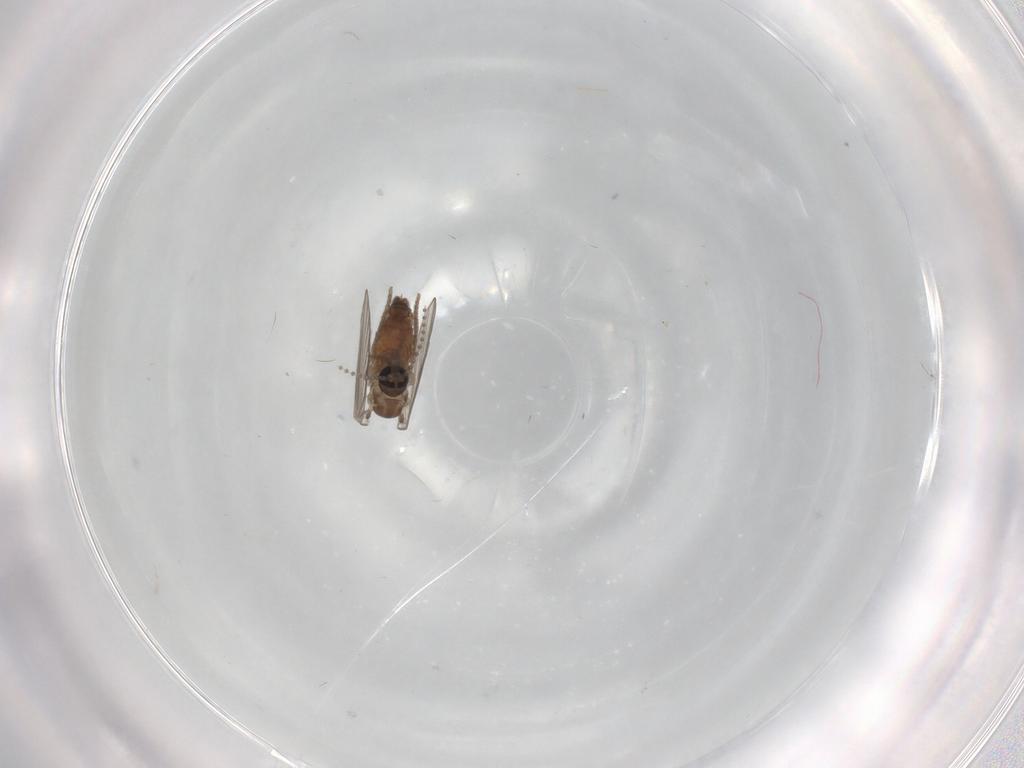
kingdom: Animalia
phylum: Arthropoda
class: Insecta
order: Diptera
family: Psychodidae
